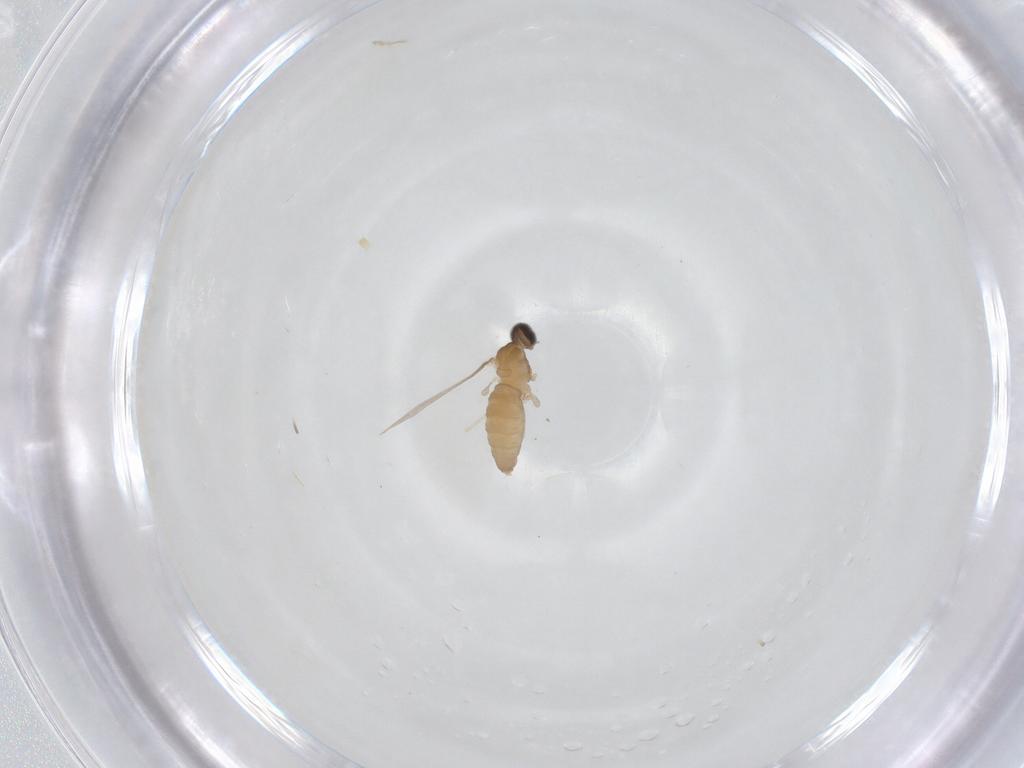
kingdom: Animalia
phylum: Arthropoda
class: Insecta
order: Diptera
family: Cecidomyiidae
